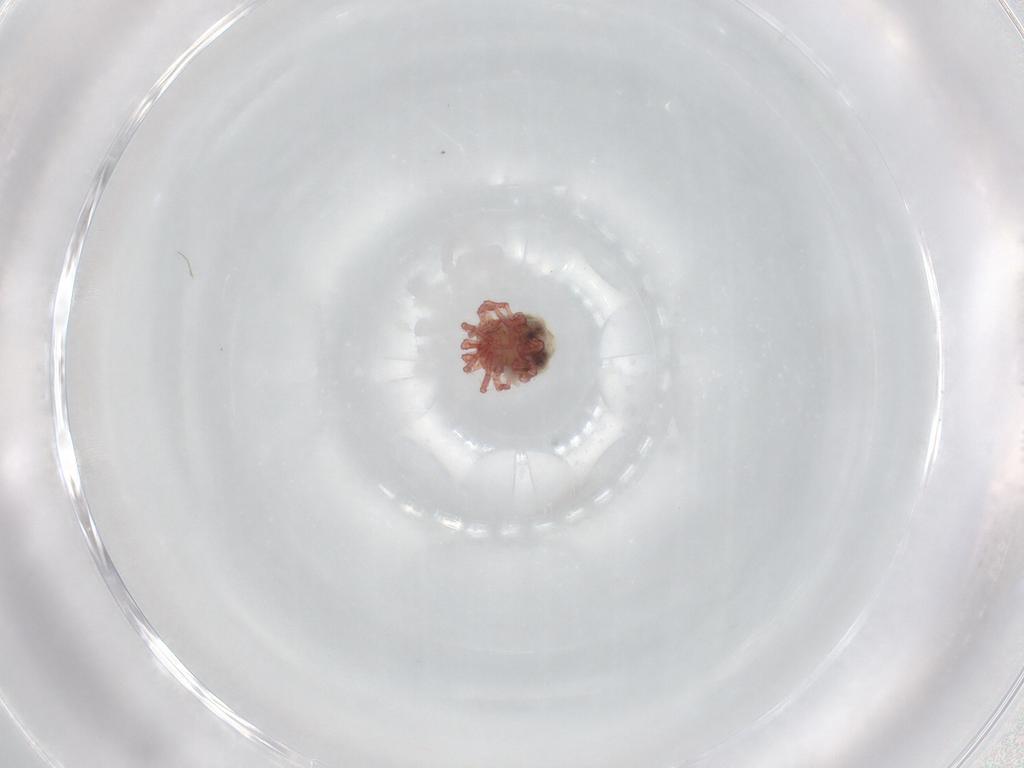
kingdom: Animalia
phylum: Arthropoda
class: Arachnida
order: Trombidiformes
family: Pionidae
